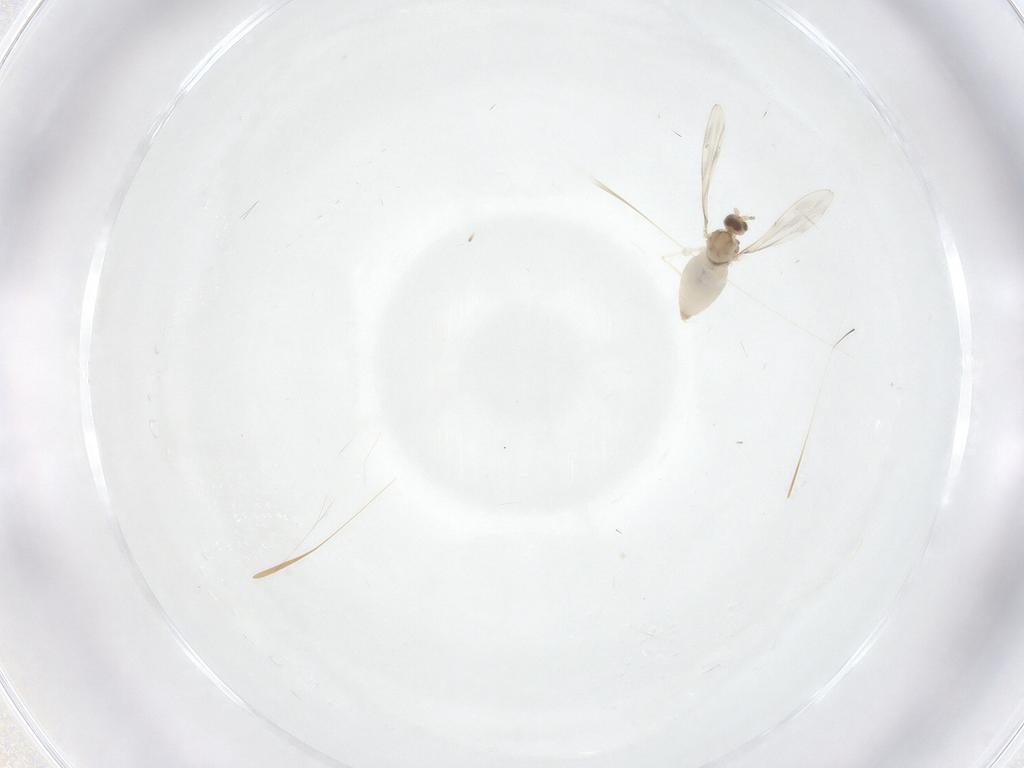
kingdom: Animalia
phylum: Arthropoda
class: Insecta
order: Diptera
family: Cecidomyiidae
